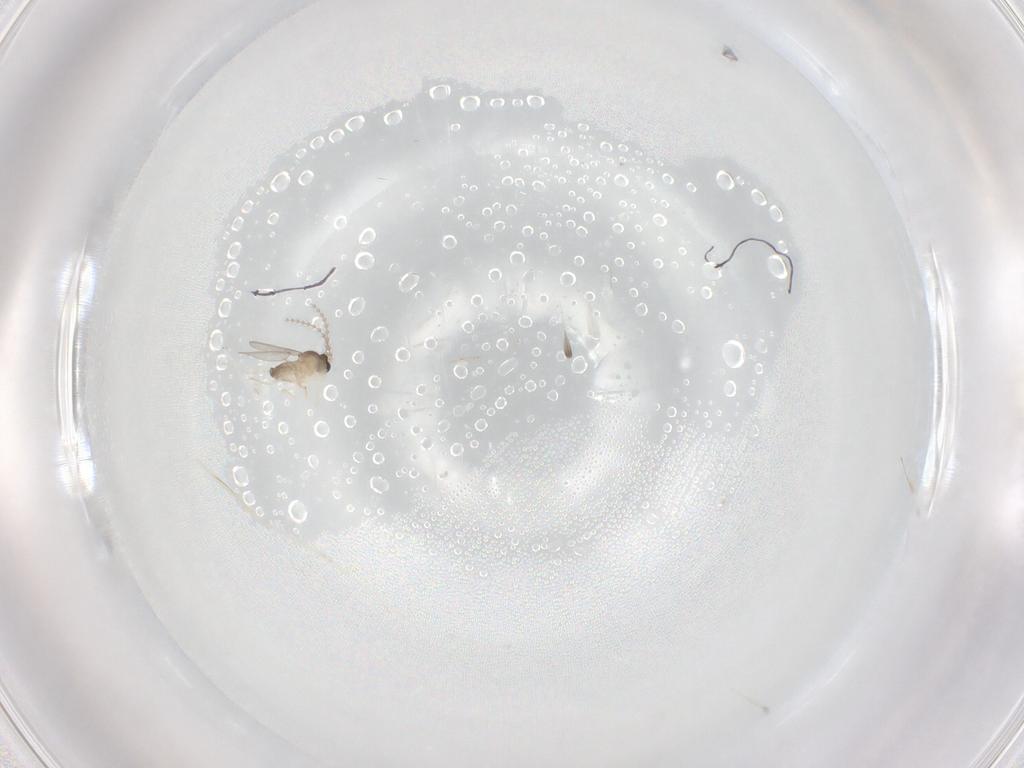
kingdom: Animalia
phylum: Arthropoda
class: Insecta
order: Diptera
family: Cecidomyiidae
